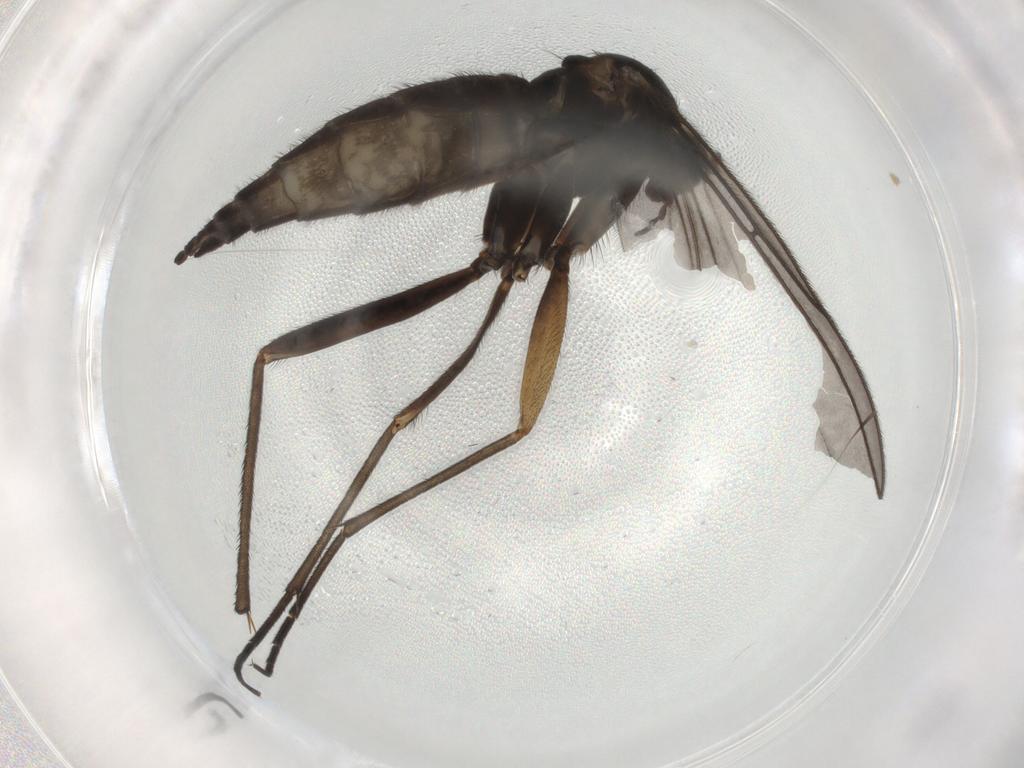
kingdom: Animalia
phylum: Arthropoda
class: Insecta
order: Diptera
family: Sciaridae
